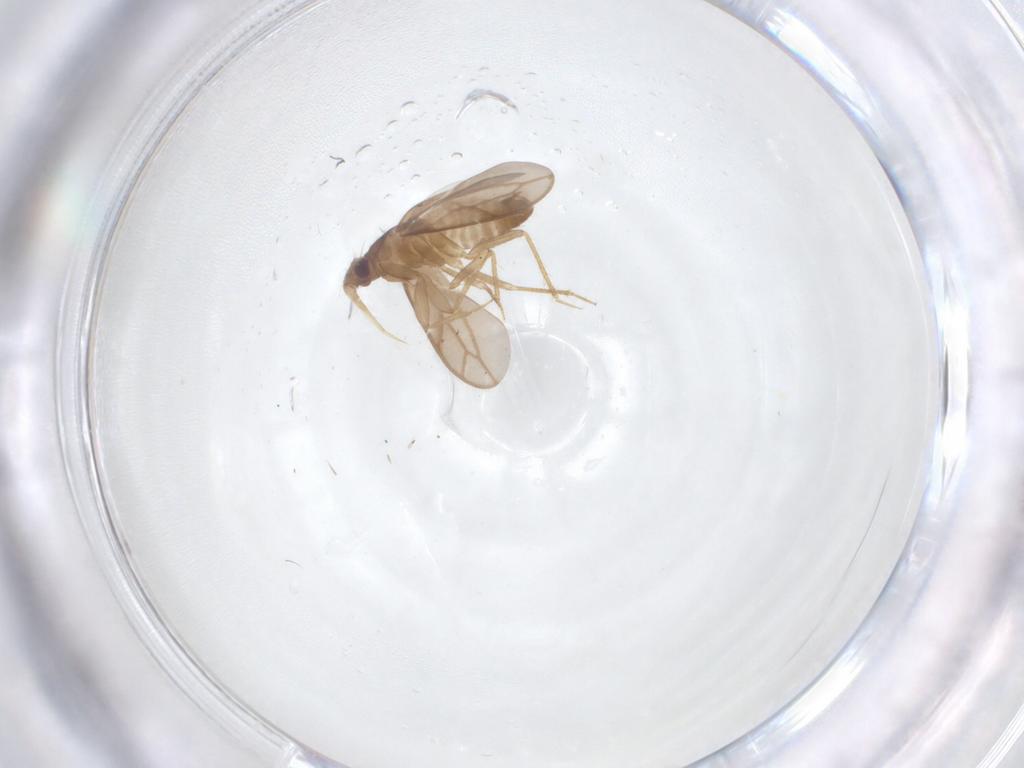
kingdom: Animalia
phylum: Arthropoda
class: Insecta
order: Hemiptera
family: Ceratocombidae
